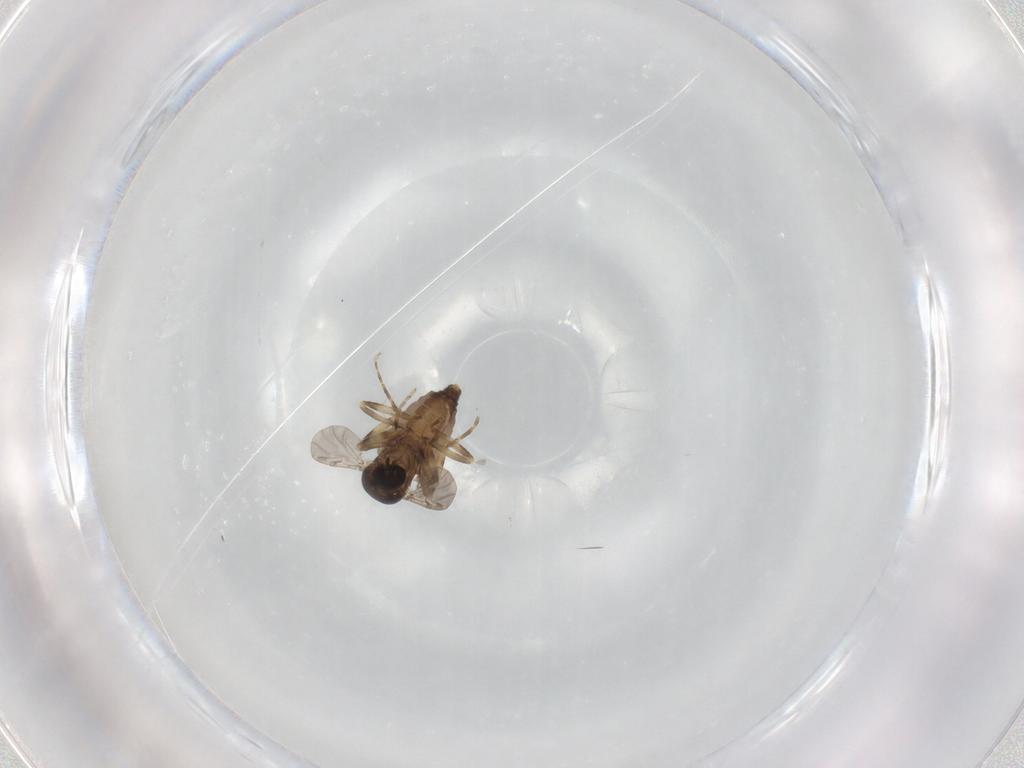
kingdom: Animalia
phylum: Arthropoda
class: Insecta
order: Diptera
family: Ceratopogonidae
